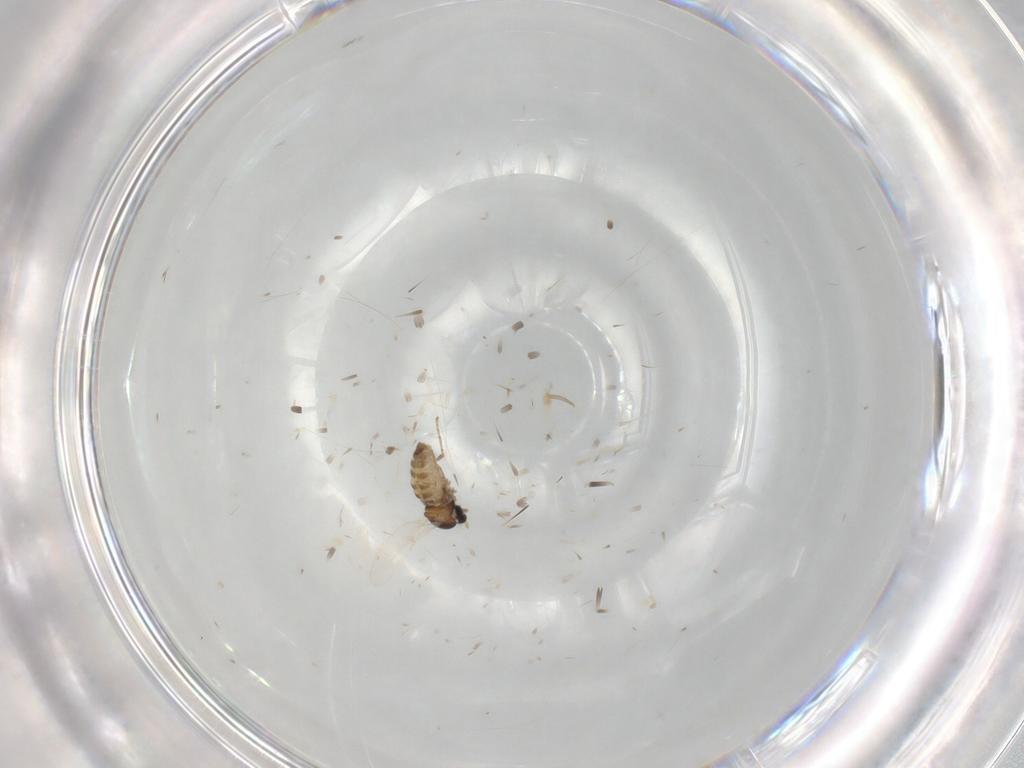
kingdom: Animalia
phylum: Arthropoda
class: Insecta
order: Diptera
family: Cecidomyiidae
